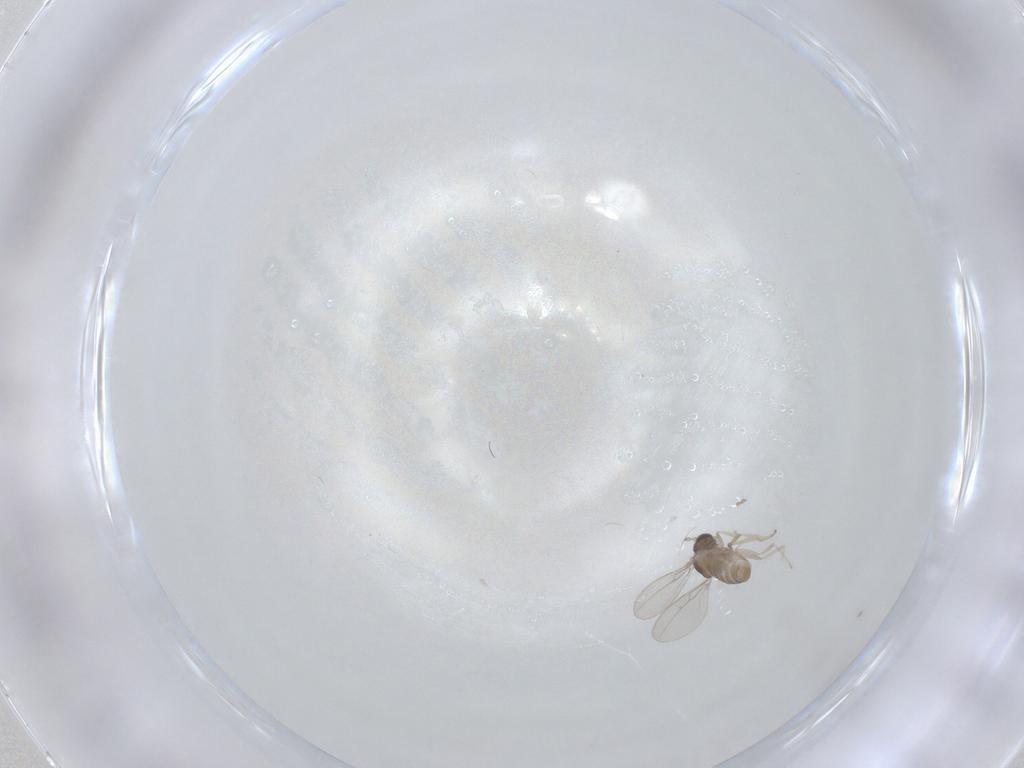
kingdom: Animalia
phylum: Arthropoda
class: Insecta
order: Diptera
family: Cecidomyiidae
